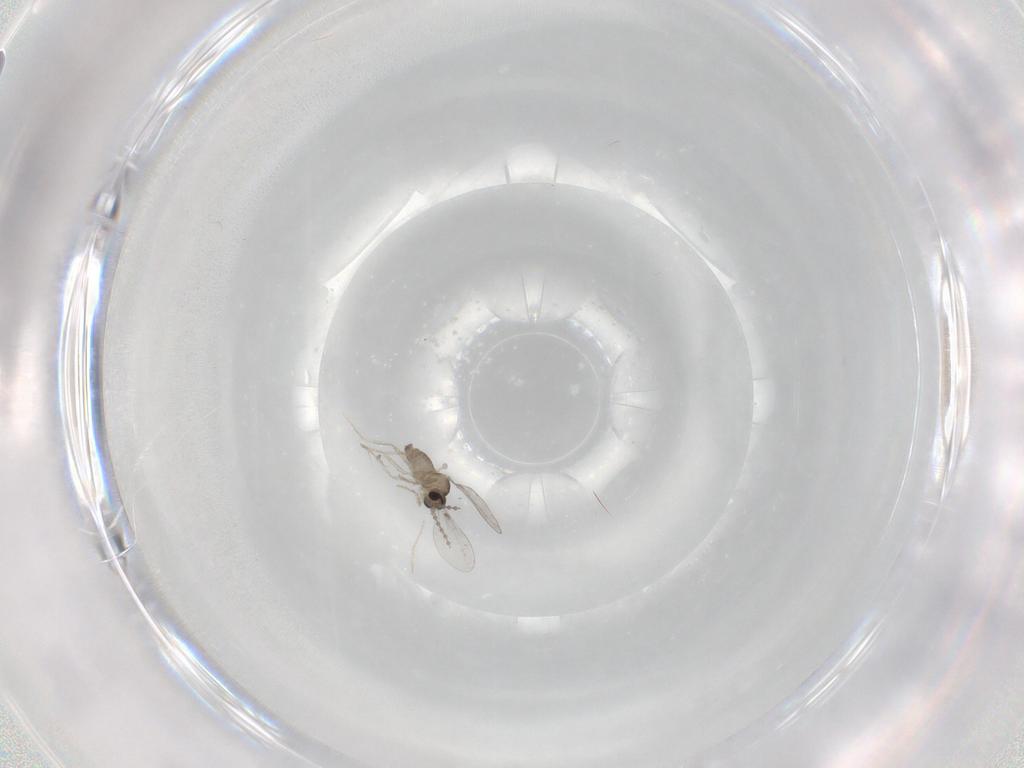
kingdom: Animalia
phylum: Arthropoda
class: Insecta
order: Diptera
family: Cecidomyiidae
